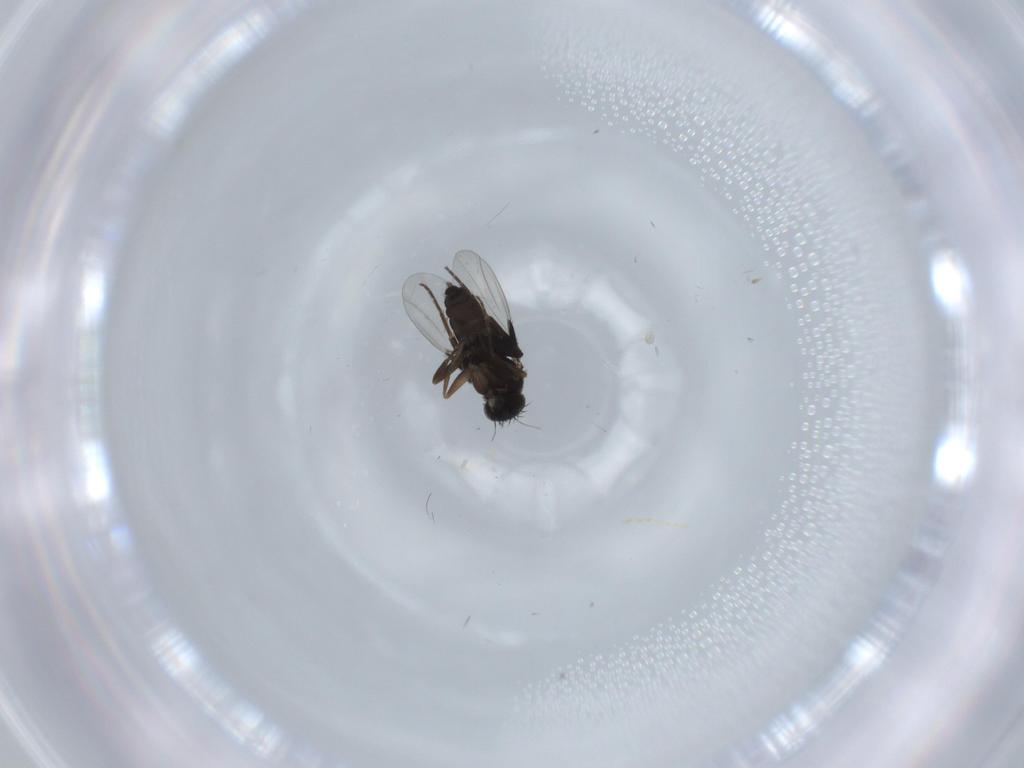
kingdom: Animalia
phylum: Arthropoda
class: Insecta
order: Diptera
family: Phoridae
